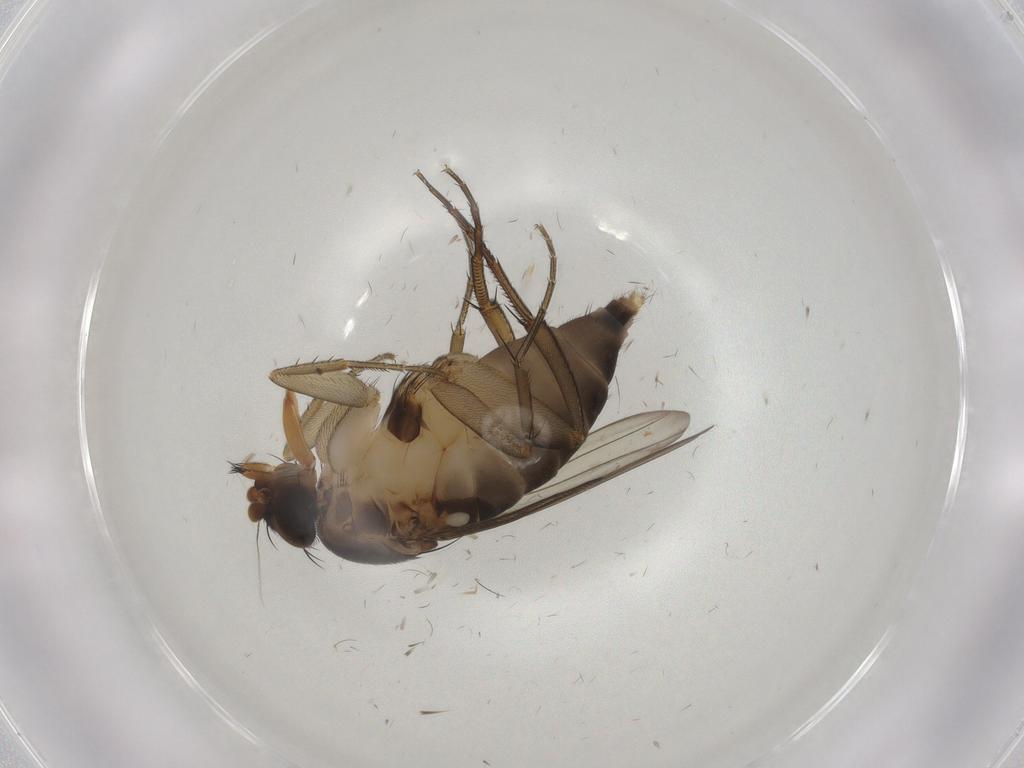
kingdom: Animalia
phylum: Arthropoda
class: Insecta
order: Diptera
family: Phoridae
